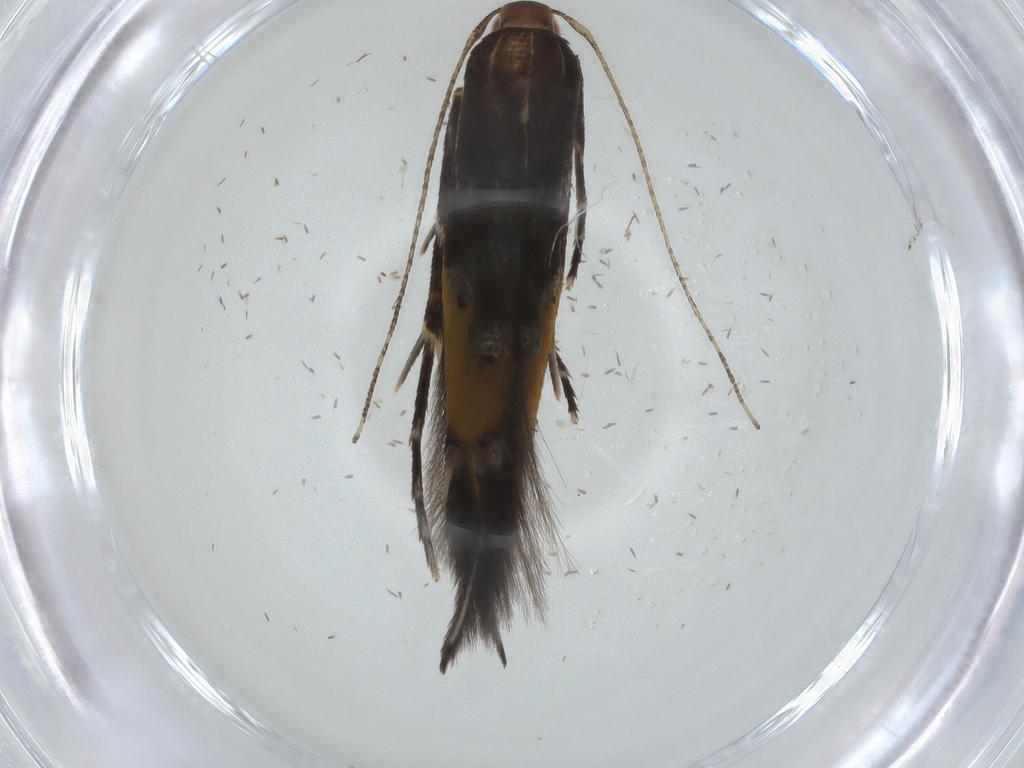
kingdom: Animalia
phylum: Arthropoda
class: Insecta
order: Lepidoptera
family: Cosmopterigidae
